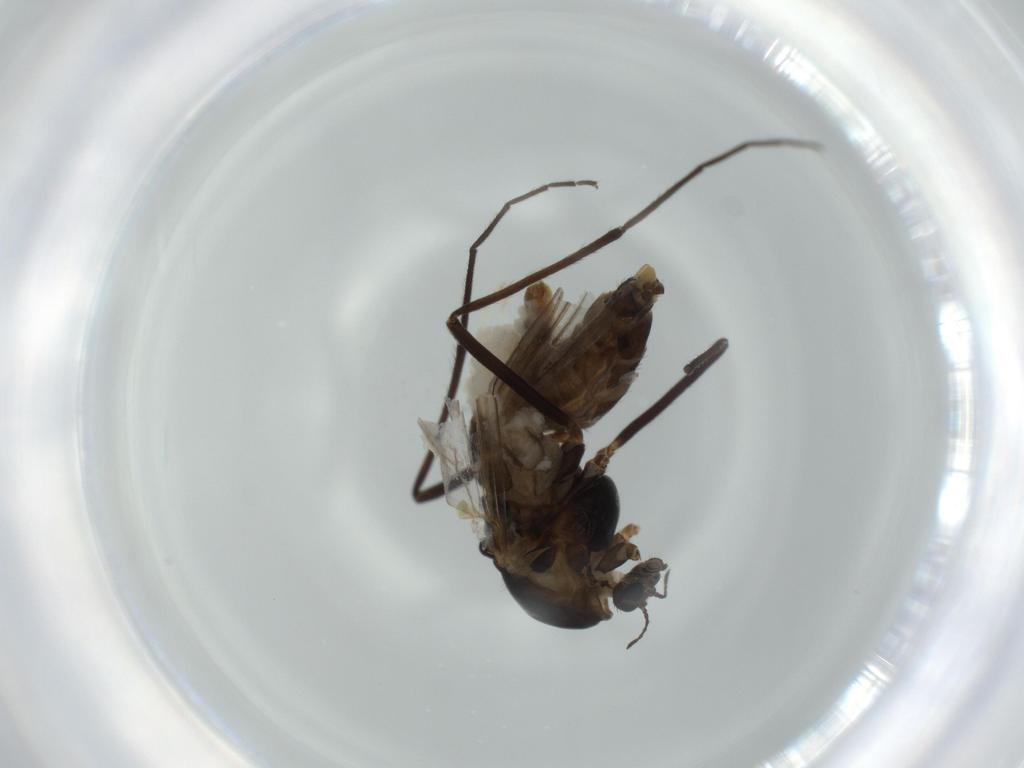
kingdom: Animalia
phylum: Arthropoda
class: Insecta
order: Diptera
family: Chironomidae
